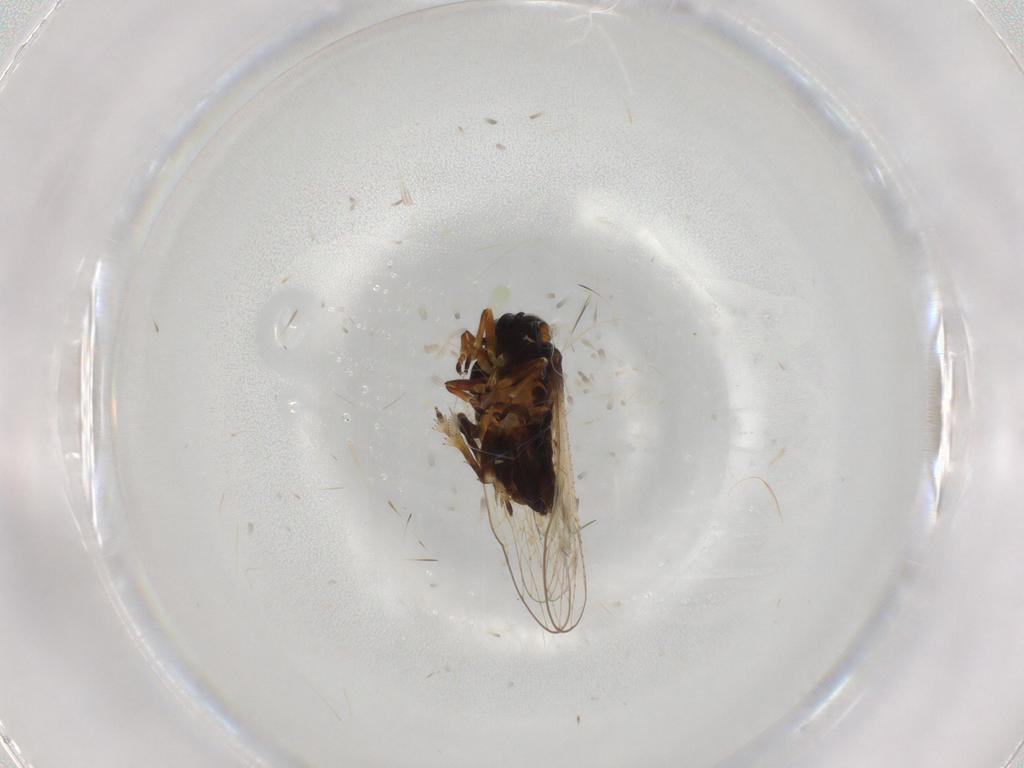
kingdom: Animalia
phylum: Arthropoda
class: Insecta
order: Hemiptera
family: Delphacidae
